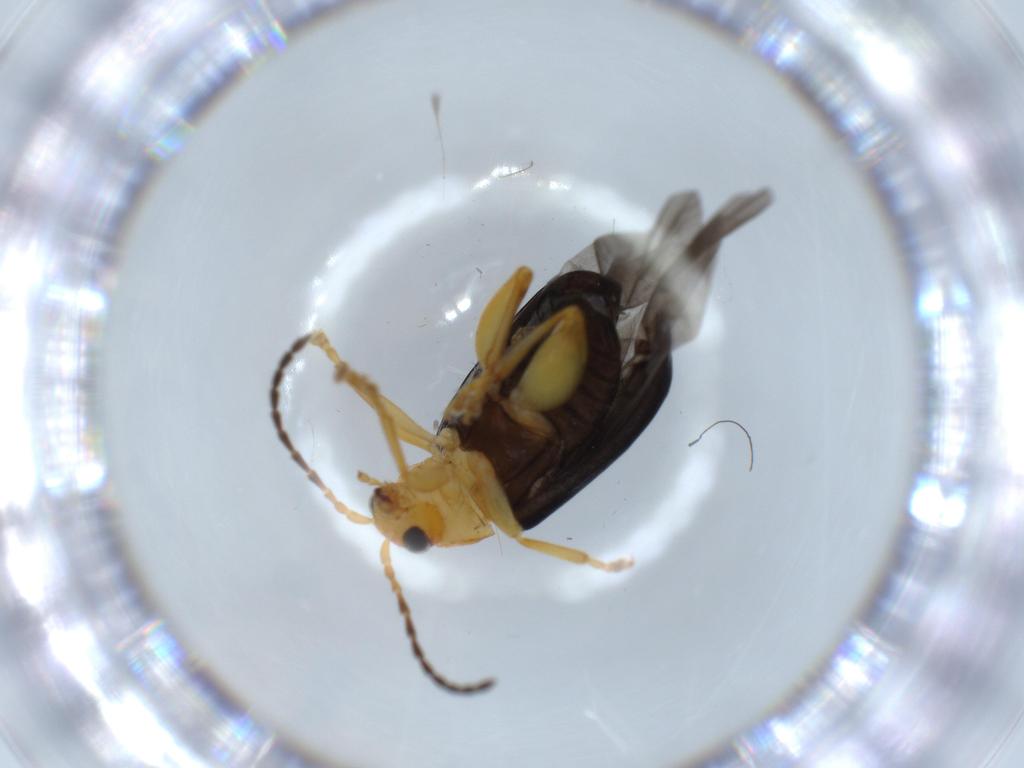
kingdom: Animalia
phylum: Arthropoda
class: Insecta
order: Coleoptera
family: Chrysomelidae
